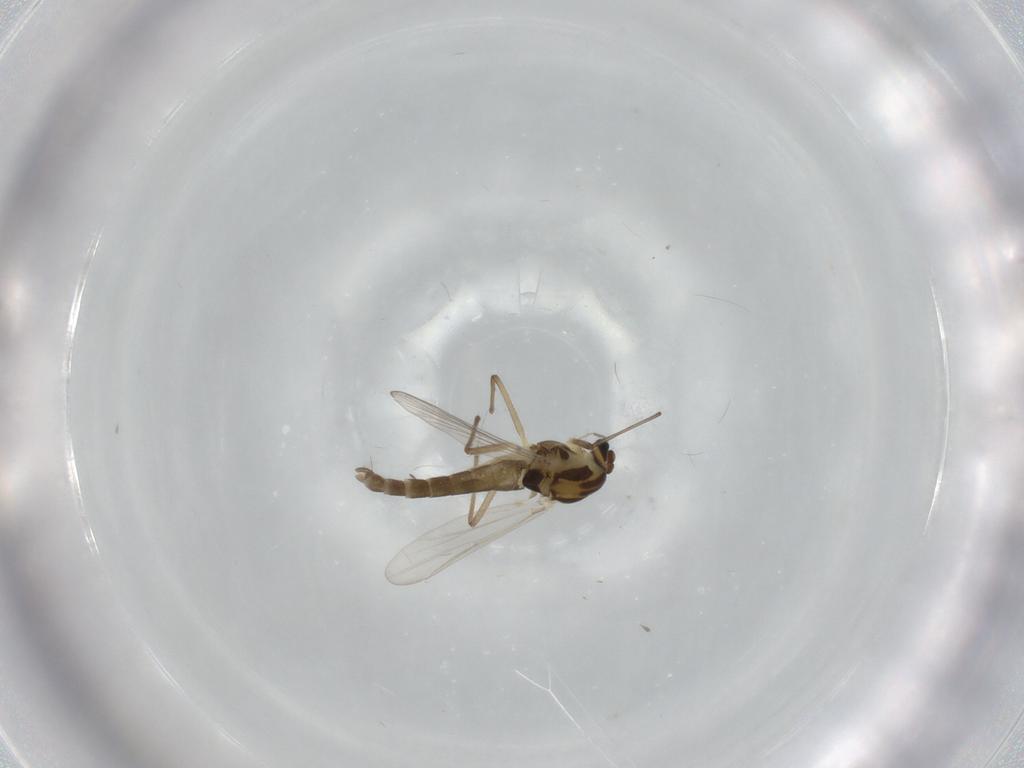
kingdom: Animalia
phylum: Arthropoda
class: Insecta
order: Diptera
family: Chironomidae
